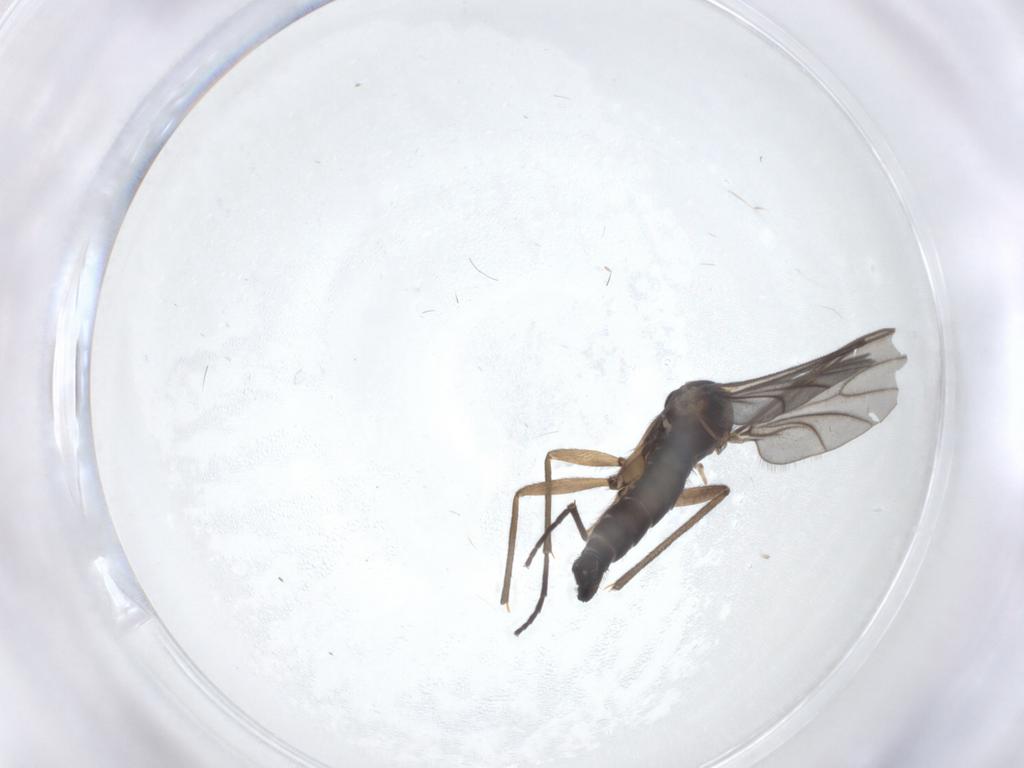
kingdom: Animalia
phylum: Arthropoda
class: Insecta
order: Diptera
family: Sciaridae
